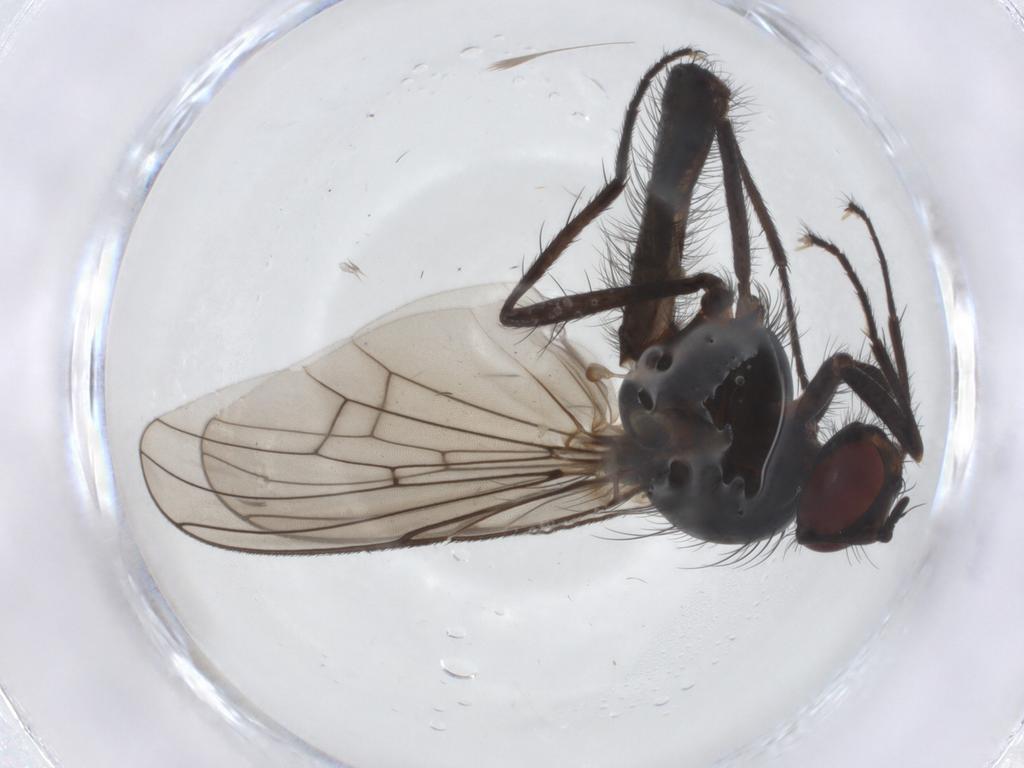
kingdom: Animalia
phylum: Arthropoda
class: Insecta
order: Diptera
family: Anthomyiidae
